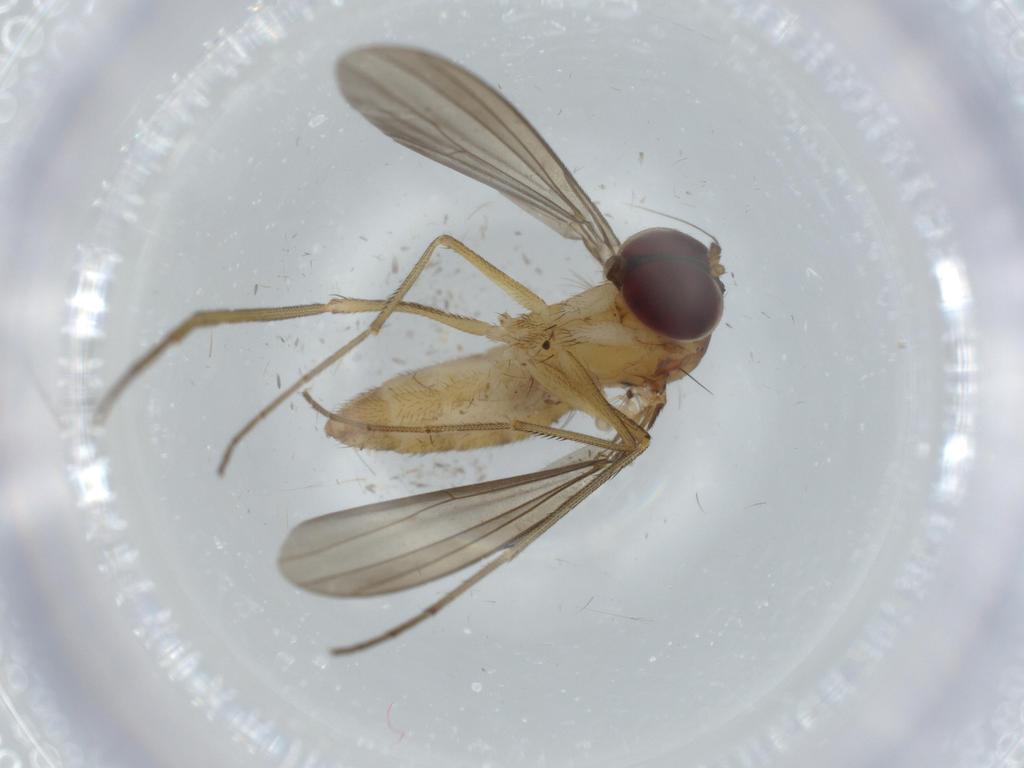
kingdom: Animalia
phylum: Arthropoda
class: Insecta
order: Diptera
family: Dolichopodidae
